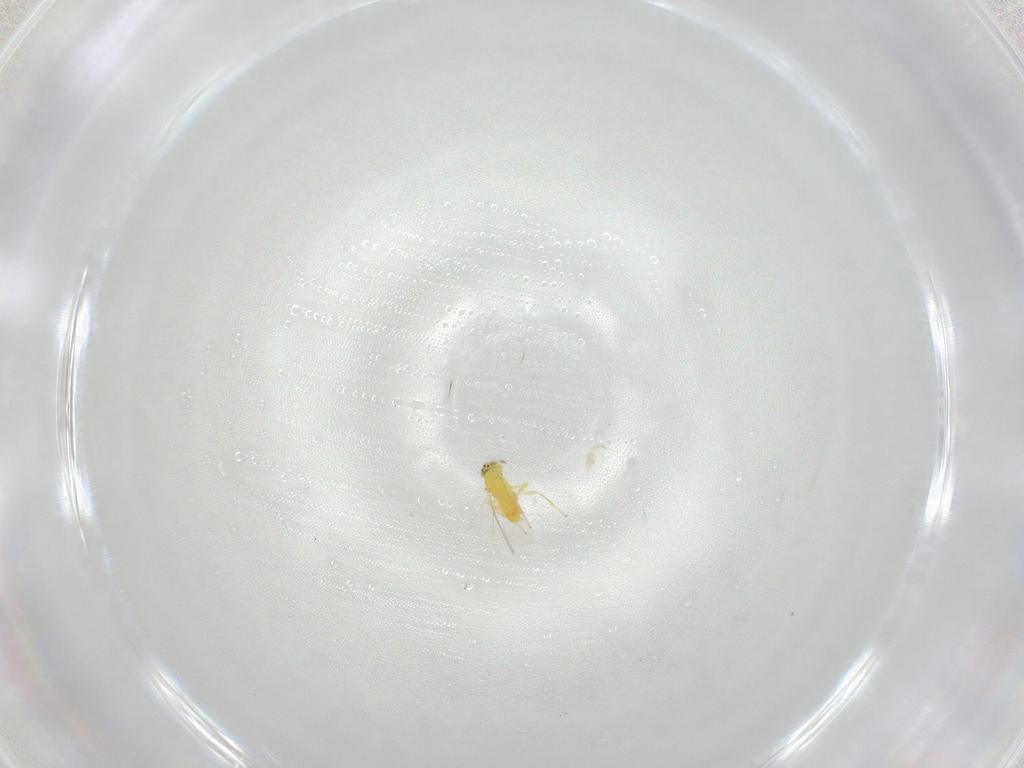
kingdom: Animalia
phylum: Arthropoda
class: Insecta
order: Hymenoptera
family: Aphelinidae
